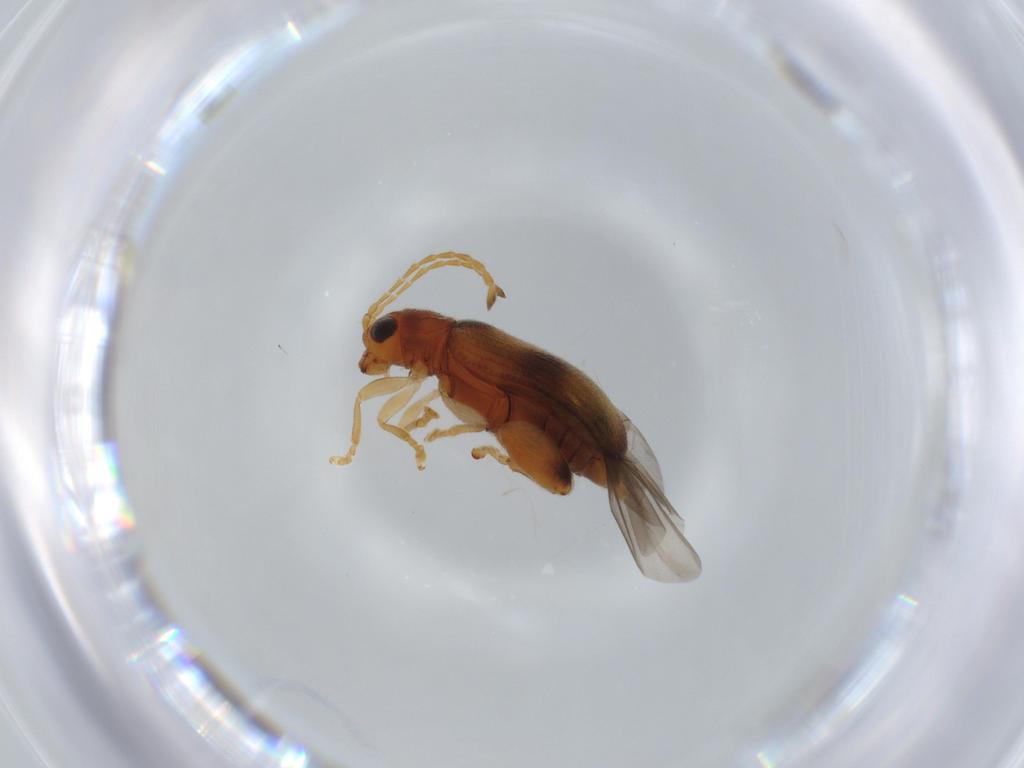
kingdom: Animalia
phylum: Arthropoda
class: Insecta
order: Coleoptera
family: Chrysomelidae
